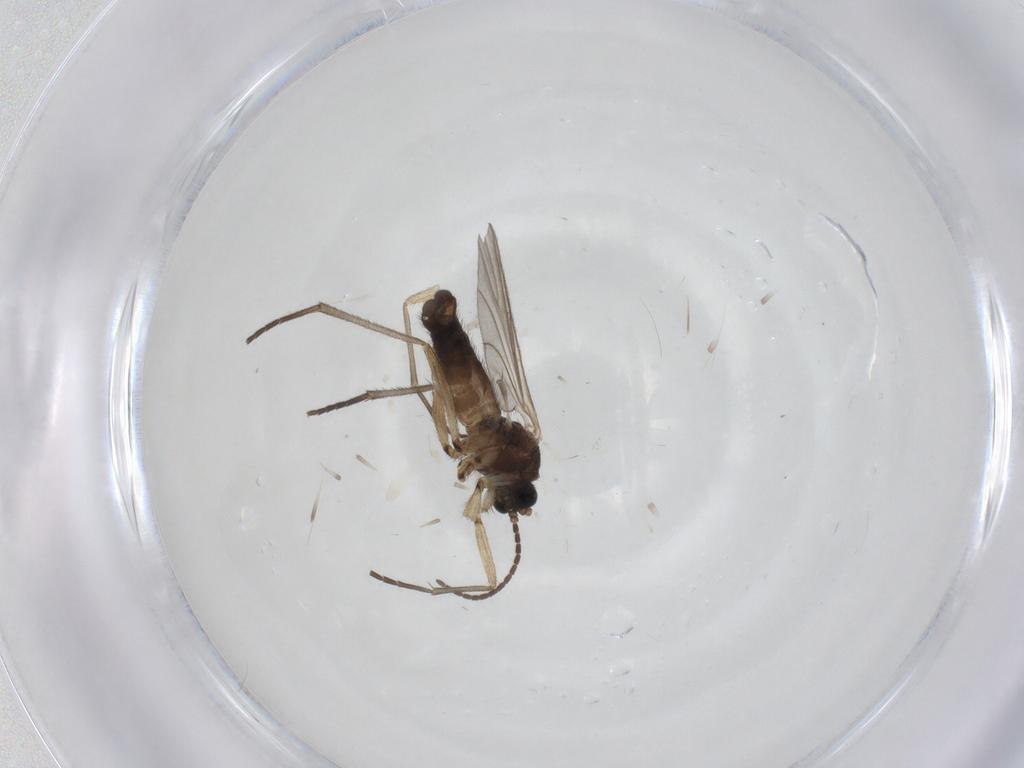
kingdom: Animalia
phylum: Arthropoda
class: Insecta
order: Diptera
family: Sciaridae
